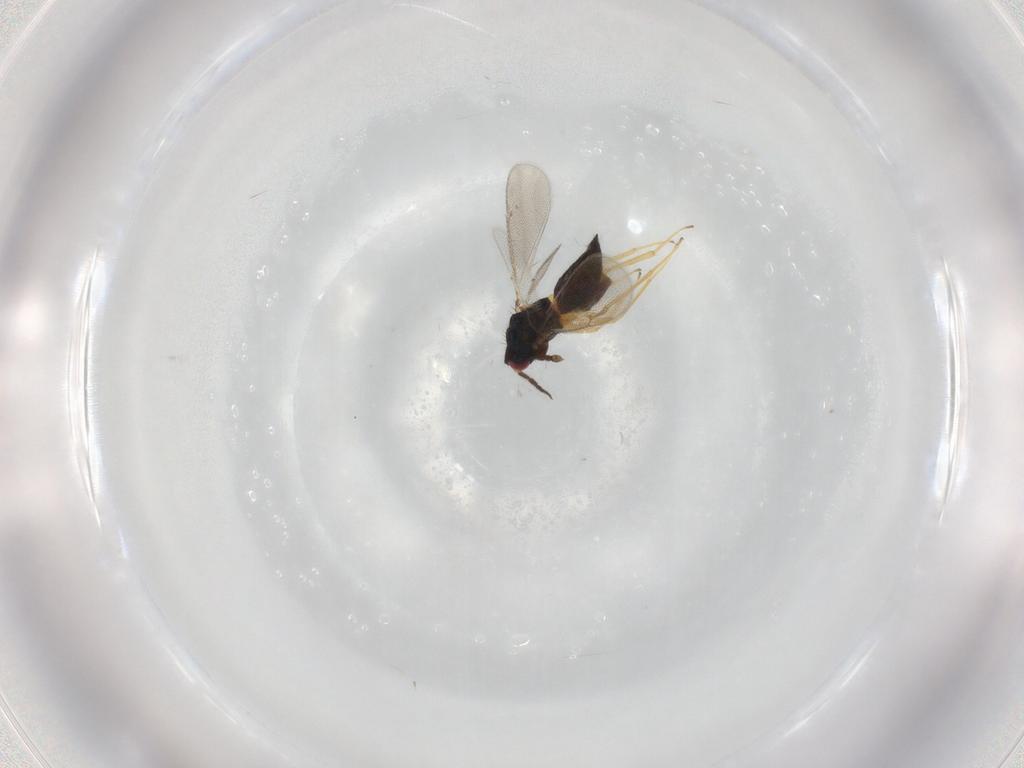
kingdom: Animalia
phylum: Arthropoda
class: Insecta
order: Hymenoptera
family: Eulophidae
